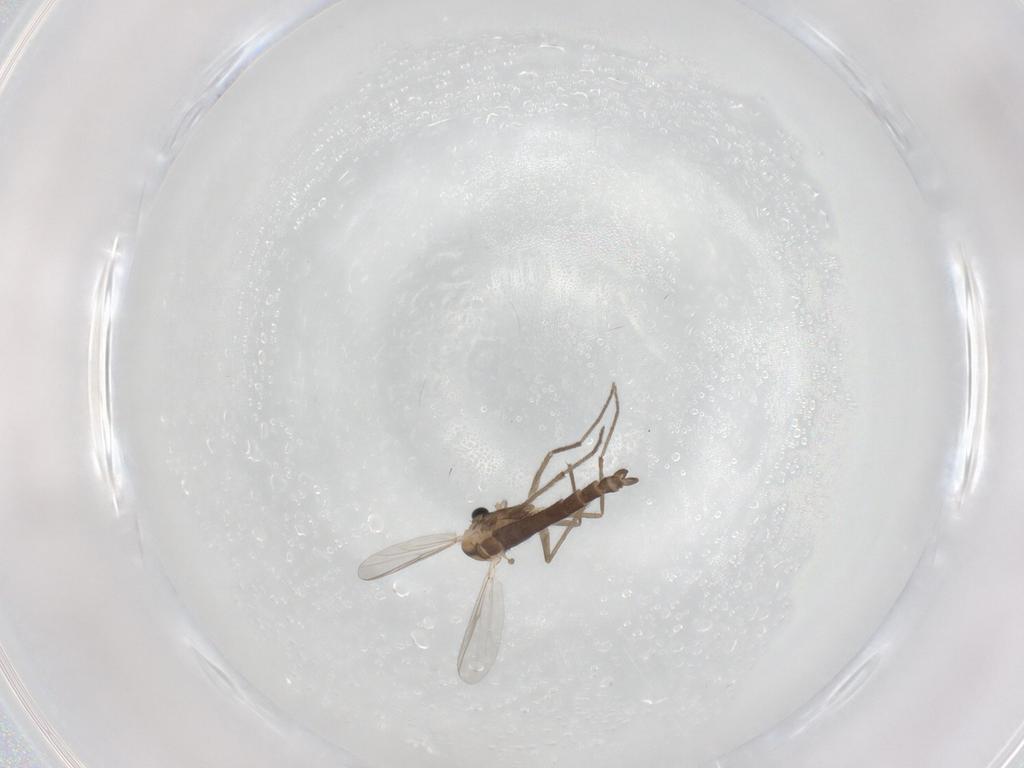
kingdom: Animalia
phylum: Arthropoda
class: Insecta
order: Diptera
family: Chironomidae
